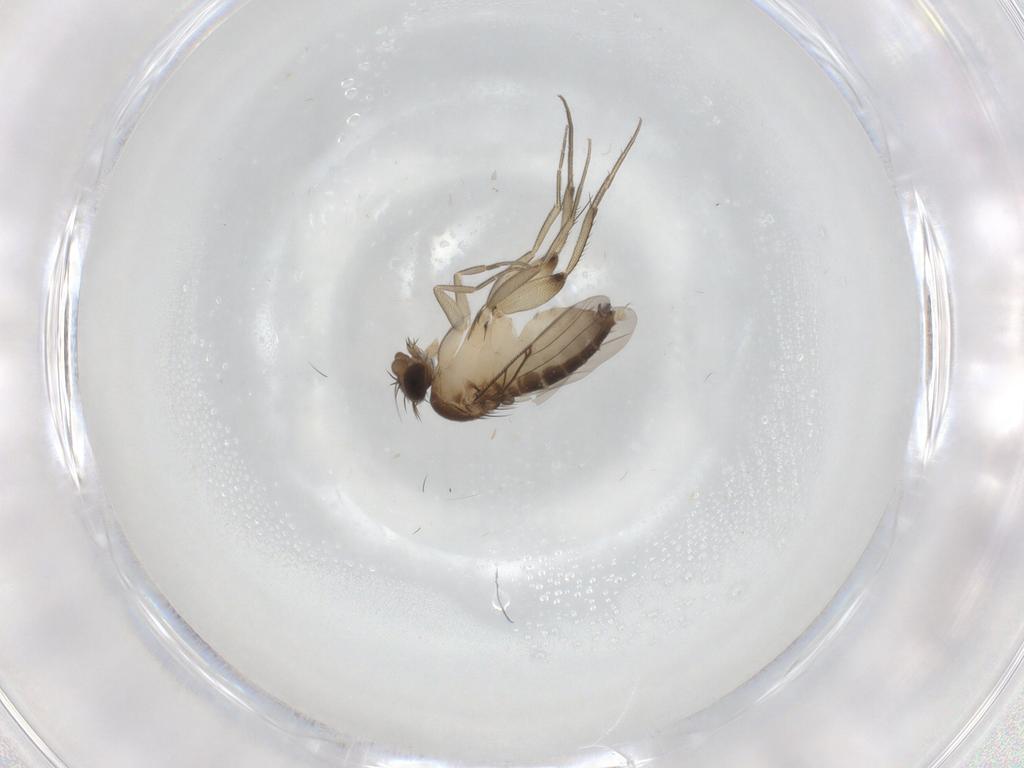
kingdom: Animalia
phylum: Arthropoda
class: Insecta
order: Diptera
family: Phoridae
